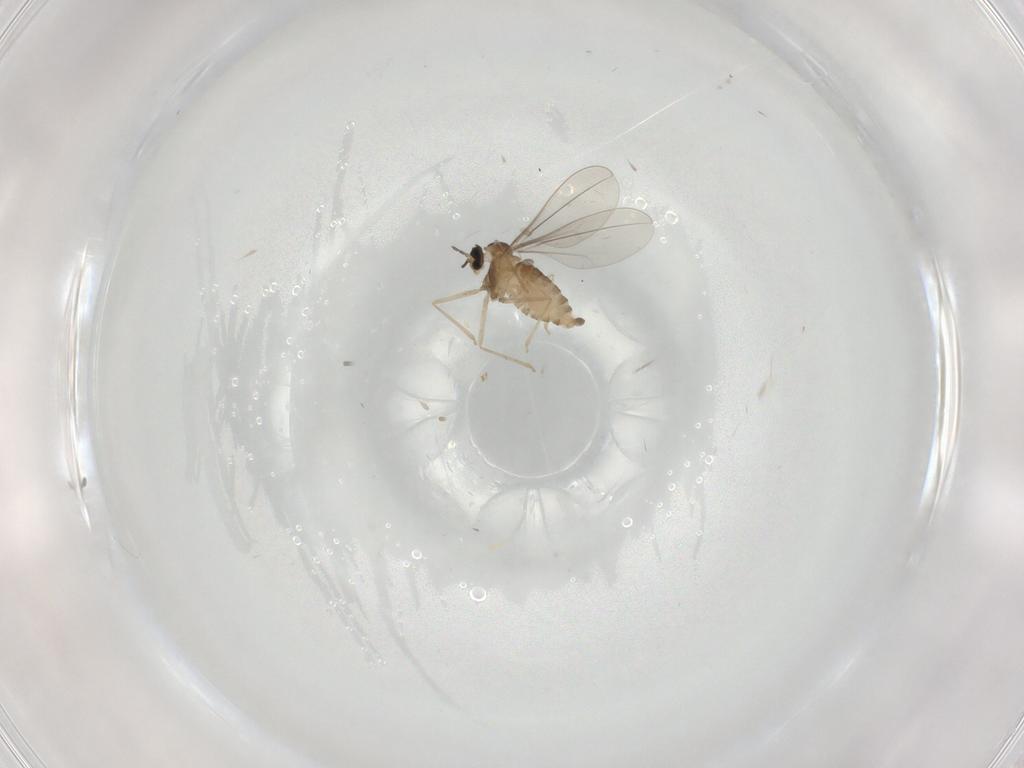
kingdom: Animalia
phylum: Arthropoda
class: Insecta
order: Diptera
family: Cecidomyiidae
